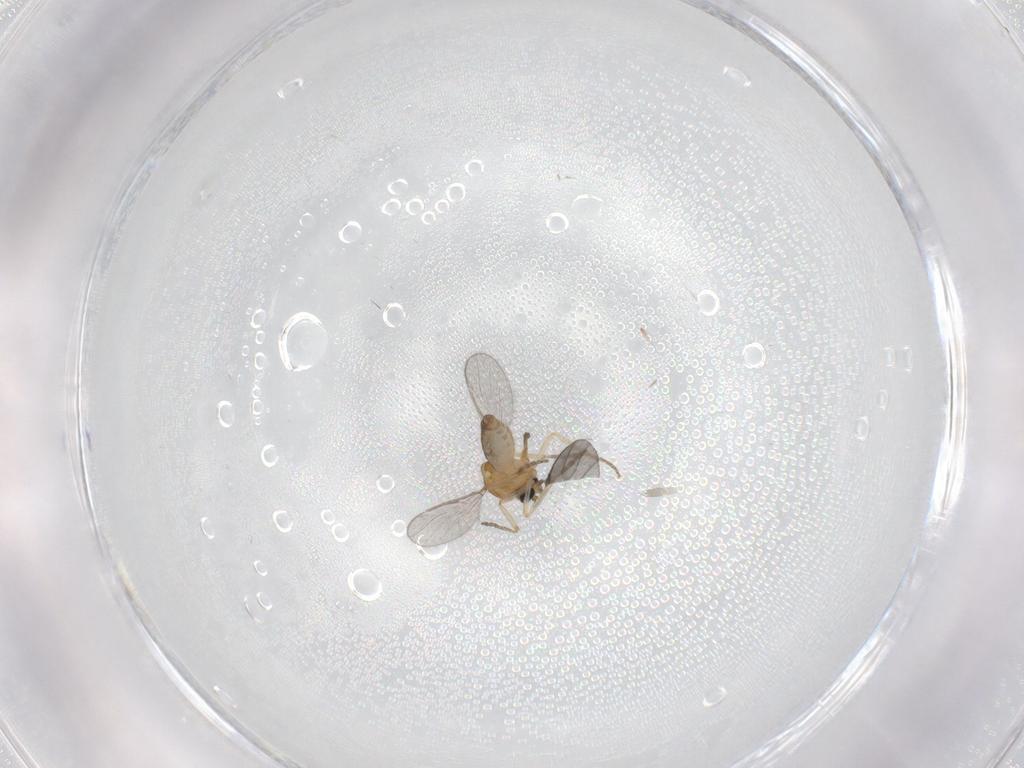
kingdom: Animalia
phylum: Arthropoda
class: Insecta
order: Diptera
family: Ceratopogonidae
